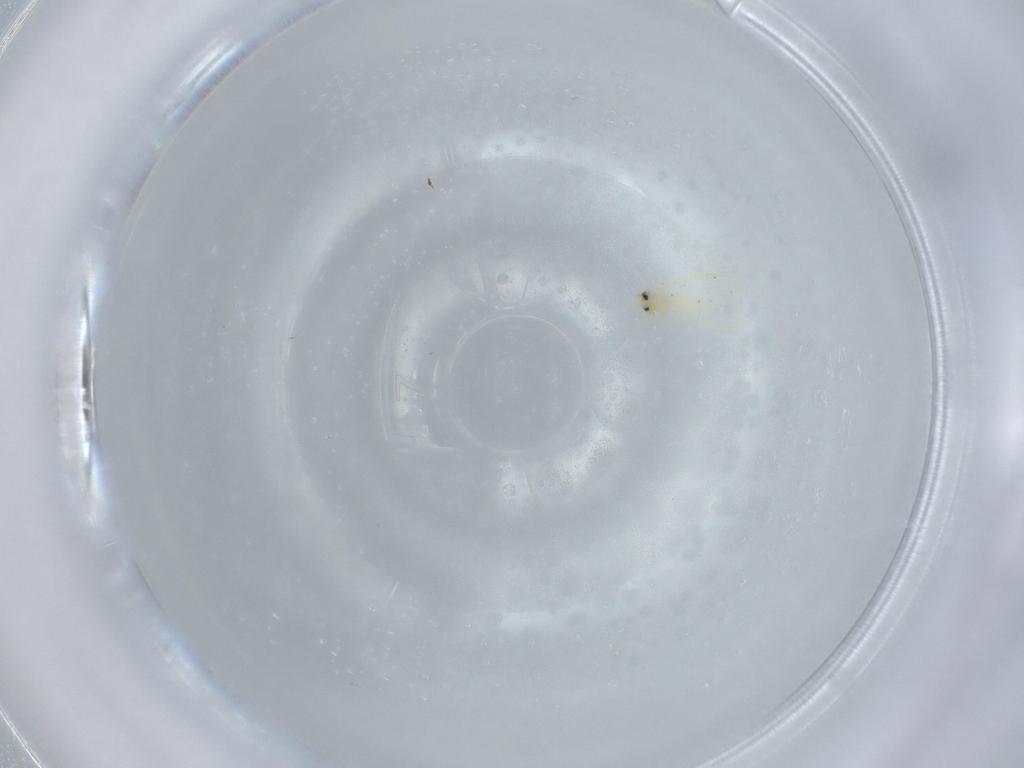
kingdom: Animalia
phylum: Arthropoda
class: Insecta
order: Hemiptera
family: Aleyrodidae
